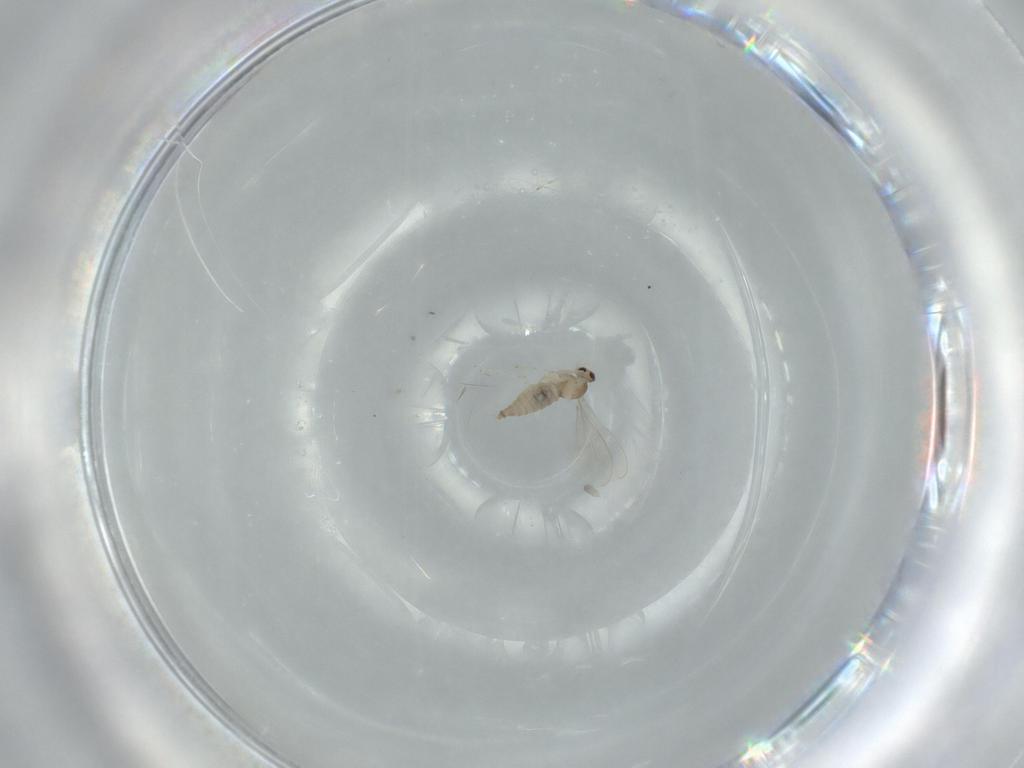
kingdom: Animalia
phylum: Arthropoda
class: Insecta
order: Diptera
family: Cecidomyiidae
